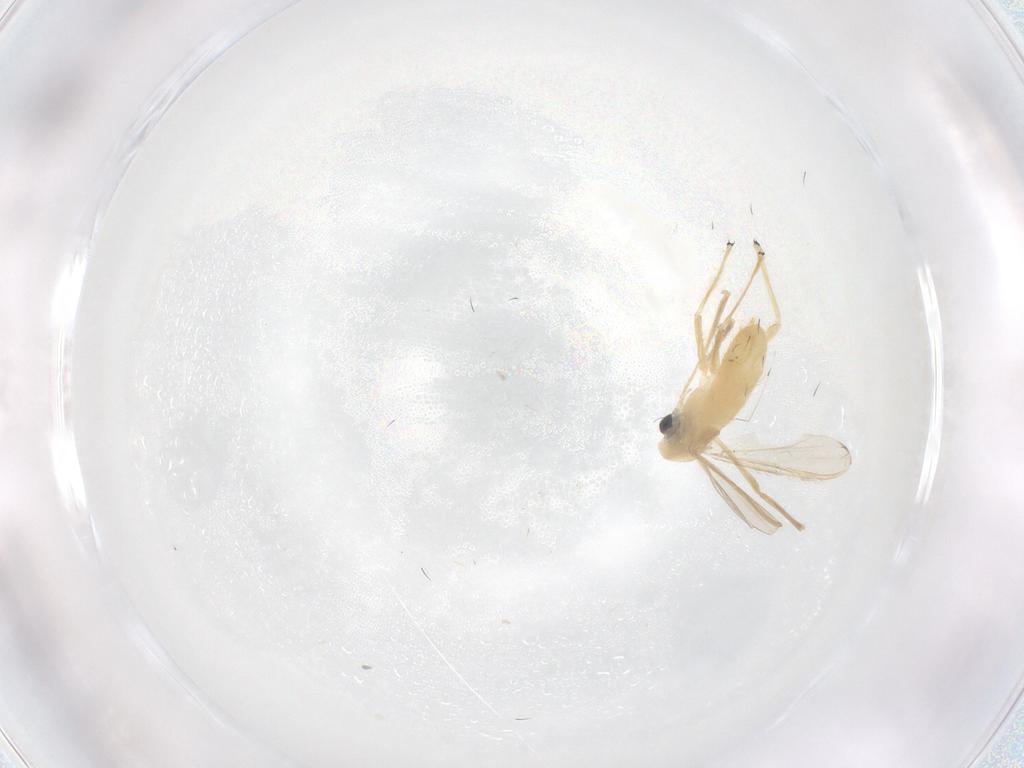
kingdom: Animalia
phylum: Arthropoda
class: Insecta
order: Diptera
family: Chironomidae
